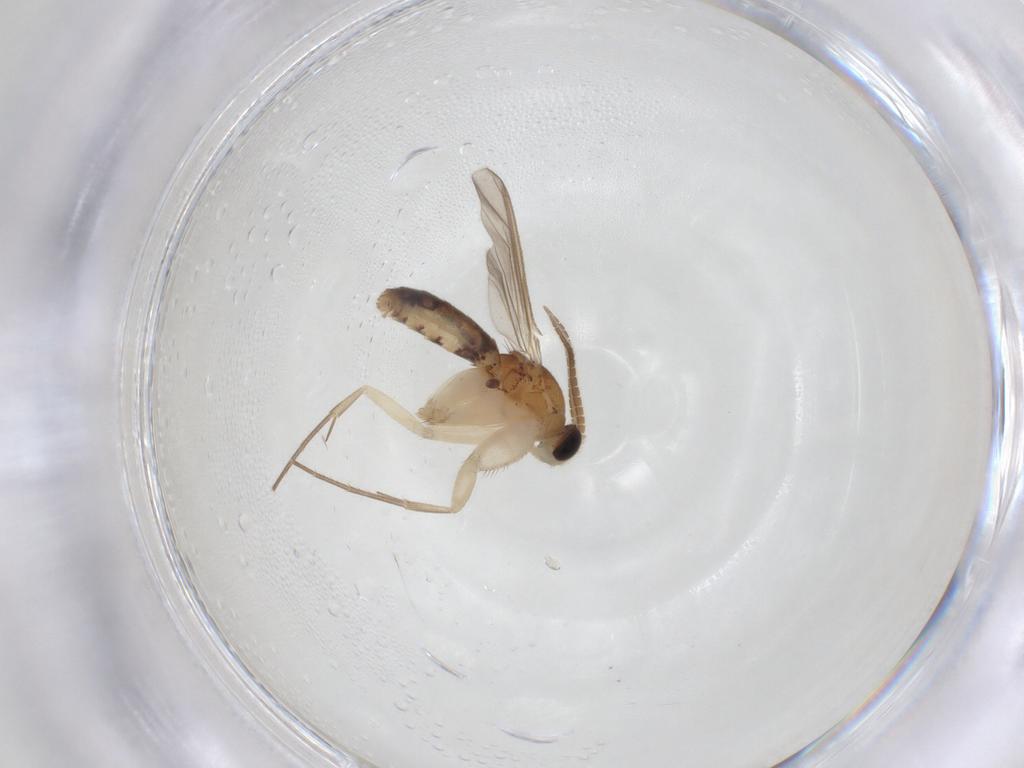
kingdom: Animalia
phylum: Arthropoda
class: Insecta
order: Diptera
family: Mycetophilidae
